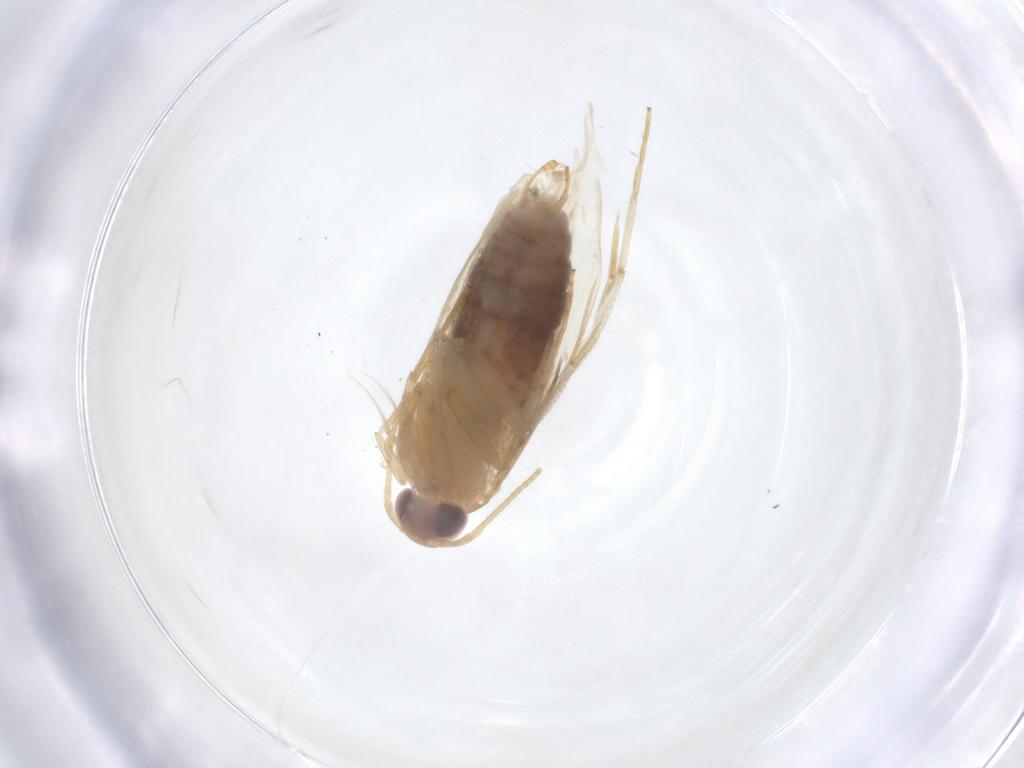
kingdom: Animalia
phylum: Arthropoda
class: Insecta
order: Lepidoptera
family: Cosmopterigidae
